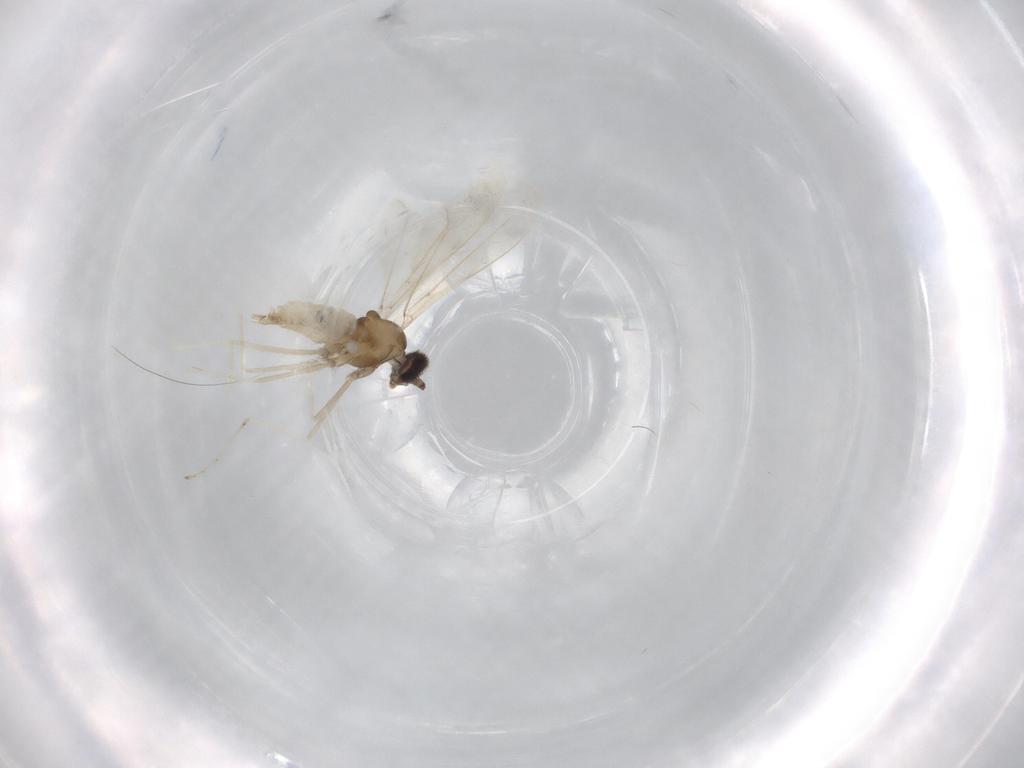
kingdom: Animalia
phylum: Arthropoda
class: Insecta
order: Diptera
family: Cecidomyiidae
